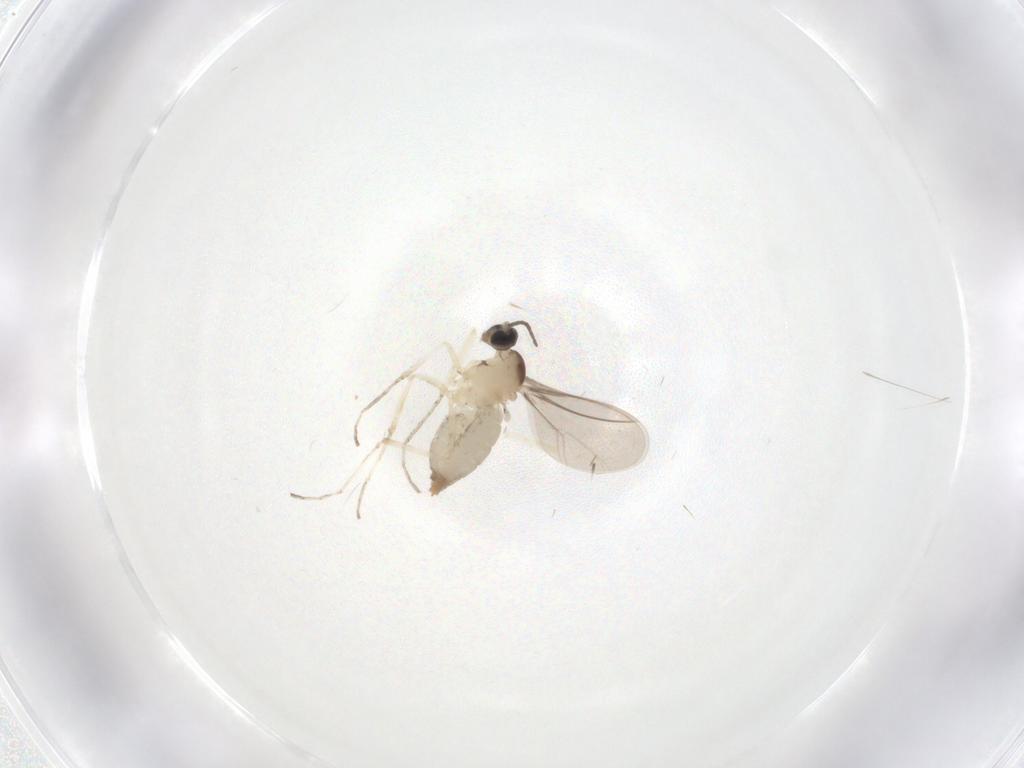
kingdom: Animalia
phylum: Arthropoda
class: Insecta
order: Diptera
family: Cecidomyiidae
